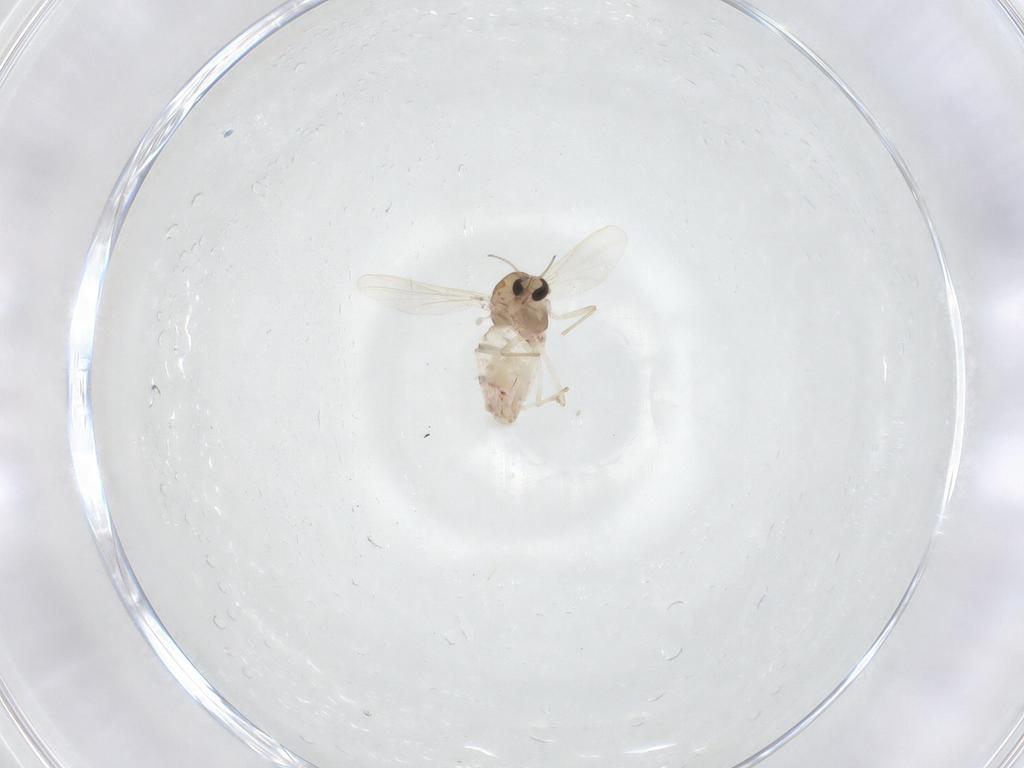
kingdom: Animalia
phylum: Arthropoda
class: Insecta
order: Diptera
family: Chironomidae
